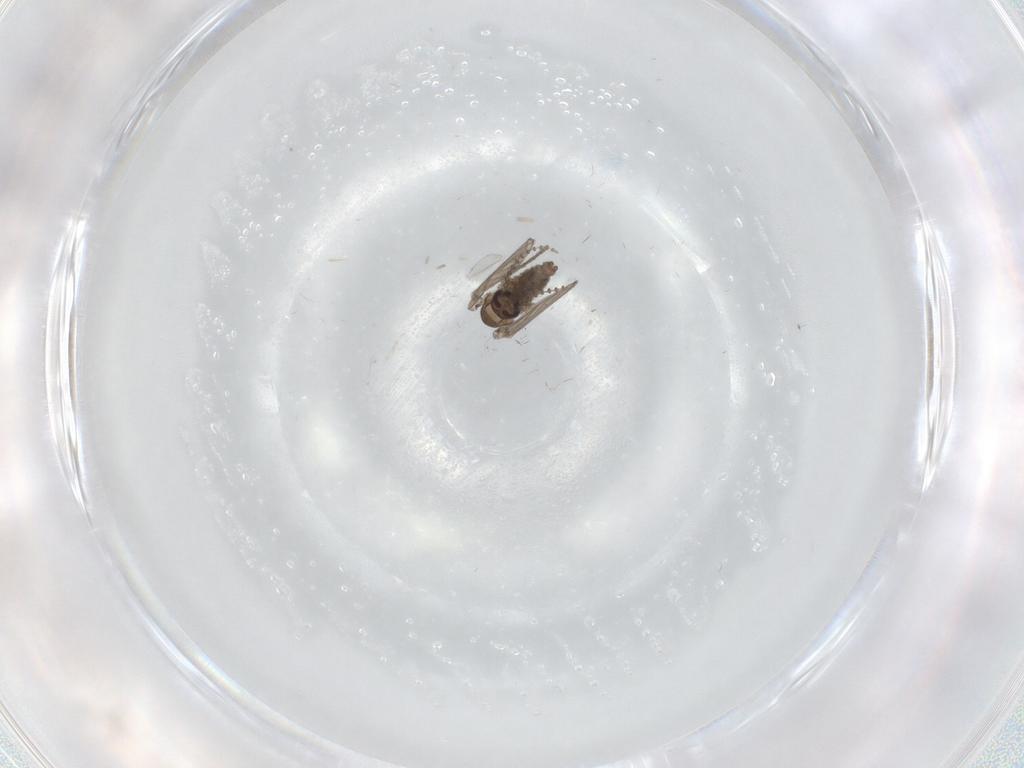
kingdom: Animalia
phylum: Arthropoda
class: Insecta
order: Diptera
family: Psychodidae
